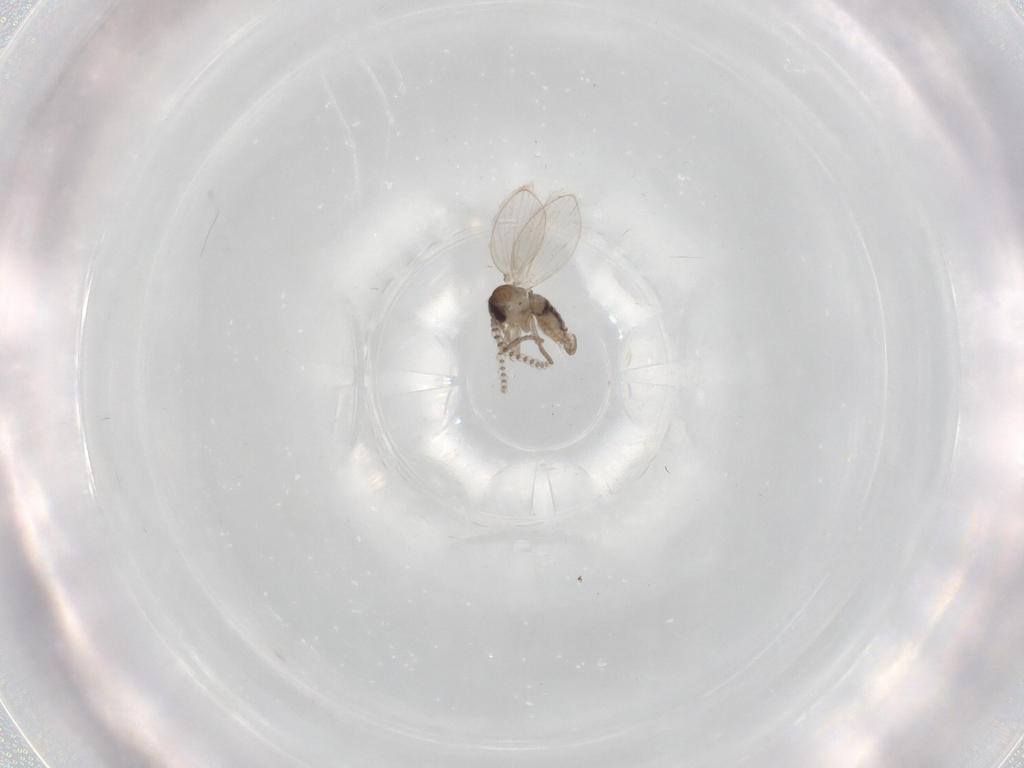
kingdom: Animalia
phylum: Arthropoda
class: Insecta
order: Diptera
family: Psychodidae
